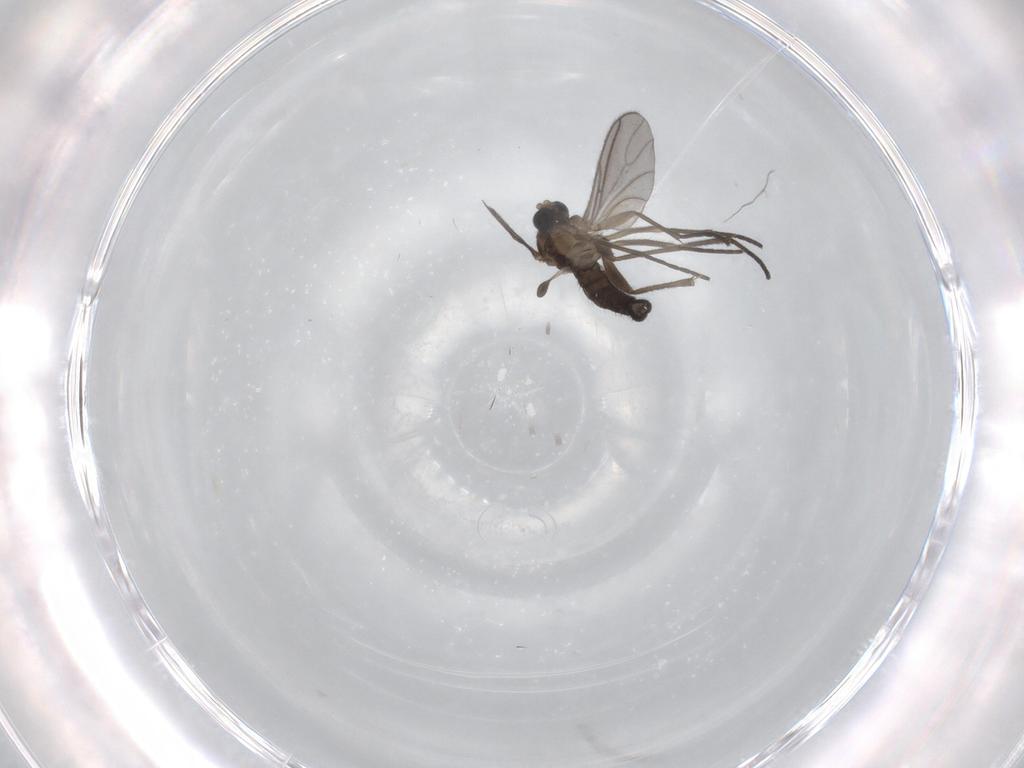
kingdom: Animalia
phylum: Arthropoda
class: Insecta
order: Diptera
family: Sciaridae
